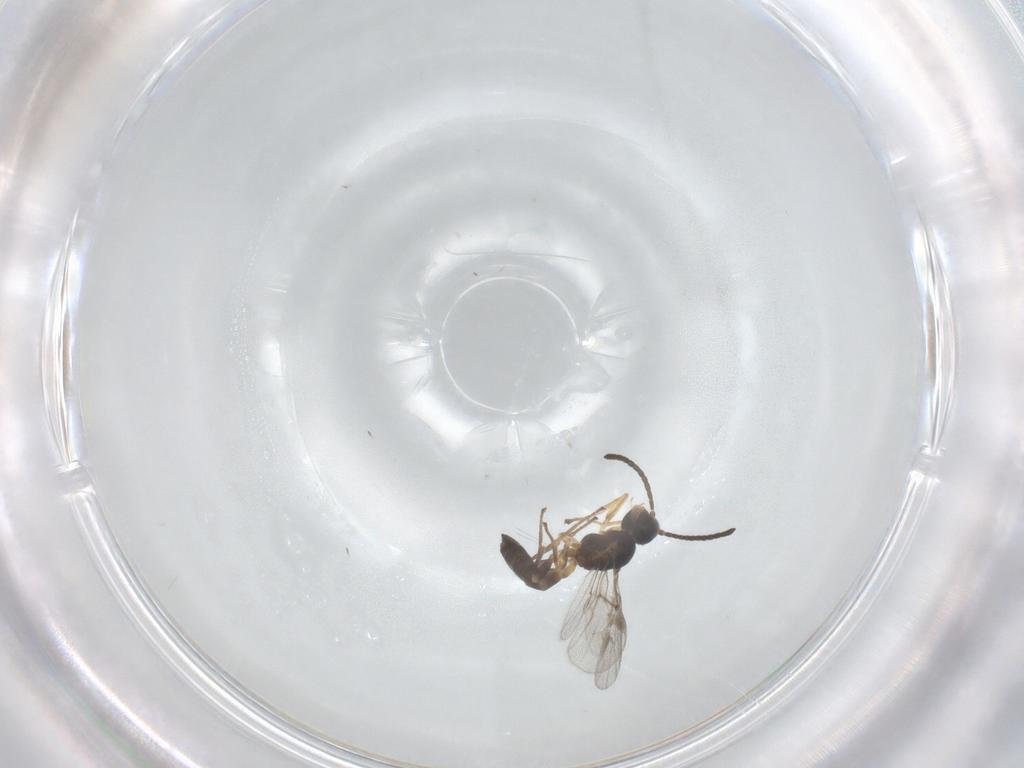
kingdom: Animalia
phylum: Arthropoda
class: Insecta
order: Hymenoptera
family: Braconidae
